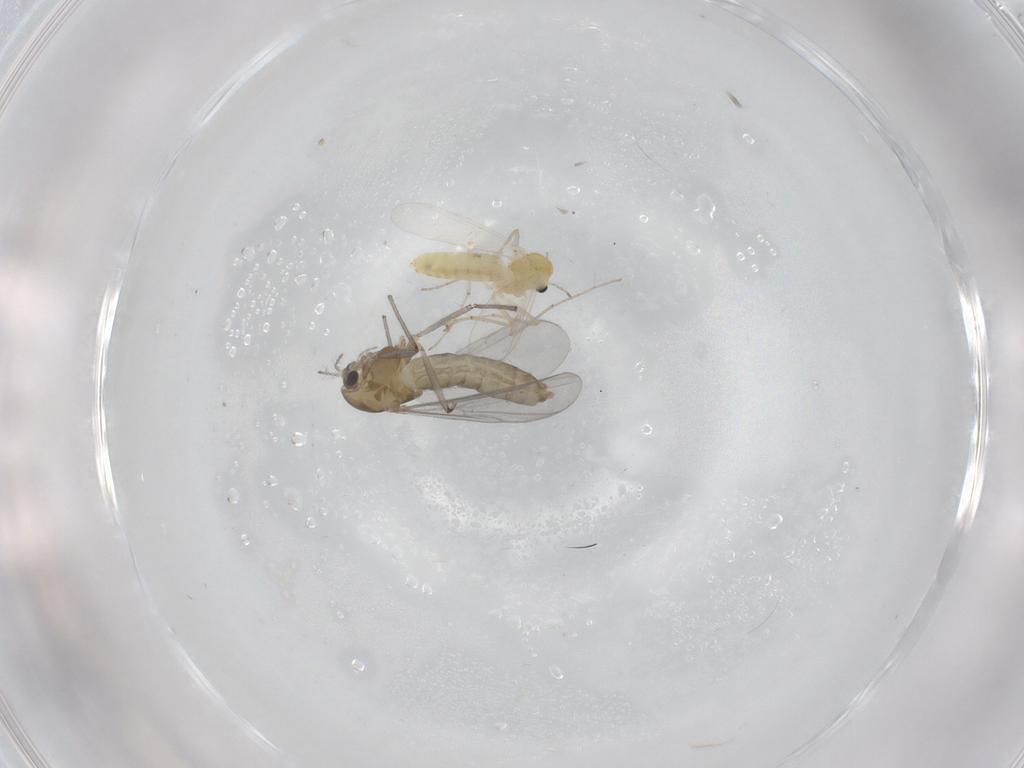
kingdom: Animalia
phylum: Arthropoda
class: Insecta
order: Diptera
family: Chironomidae
